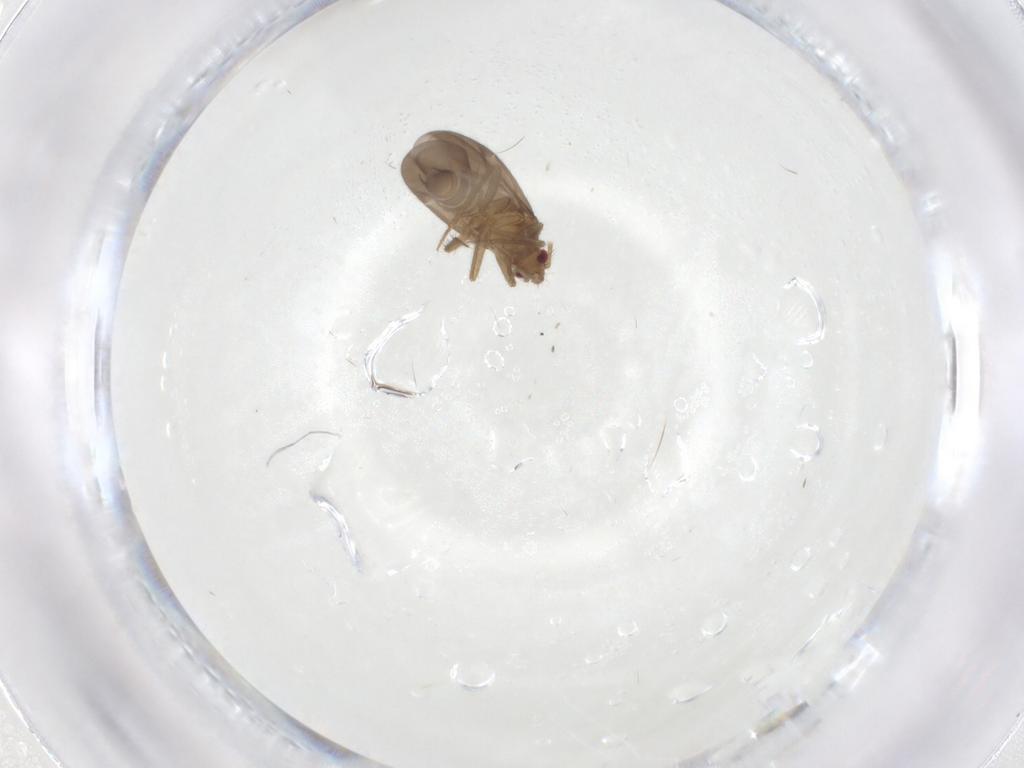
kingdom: Animalia
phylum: Arthropoda
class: Insecta
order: Hemiptera
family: Ceratocombidae
